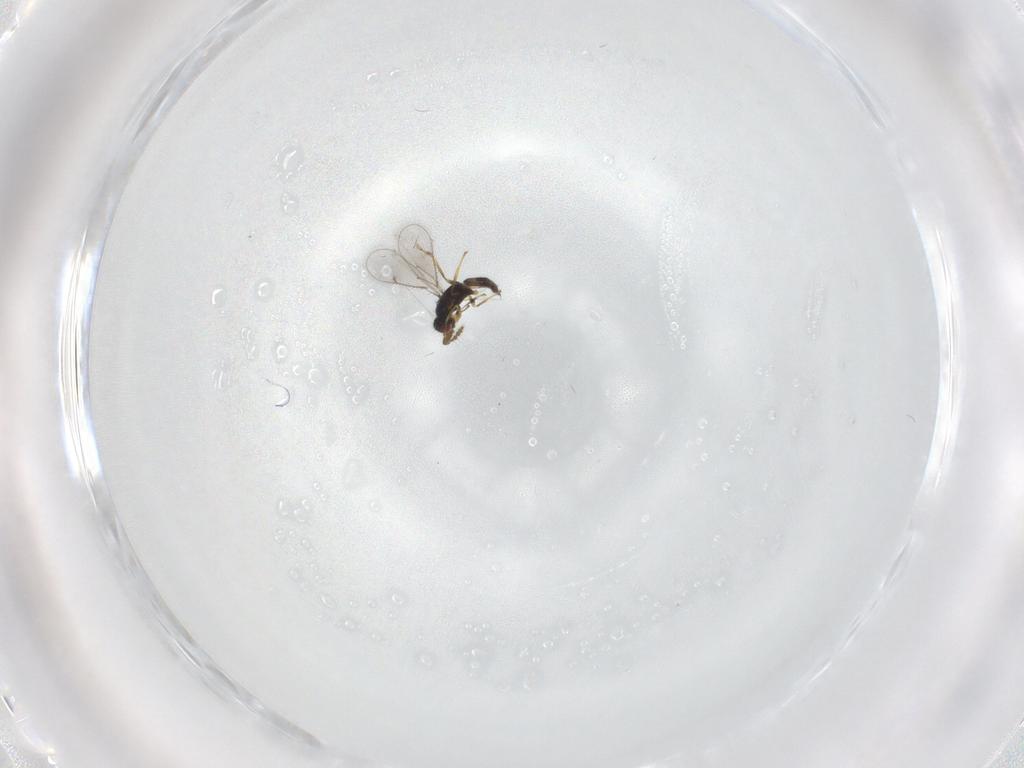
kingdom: Animalia
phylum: Arthropoda
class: Insecta
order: Hymenoptera
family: Eulophidae
